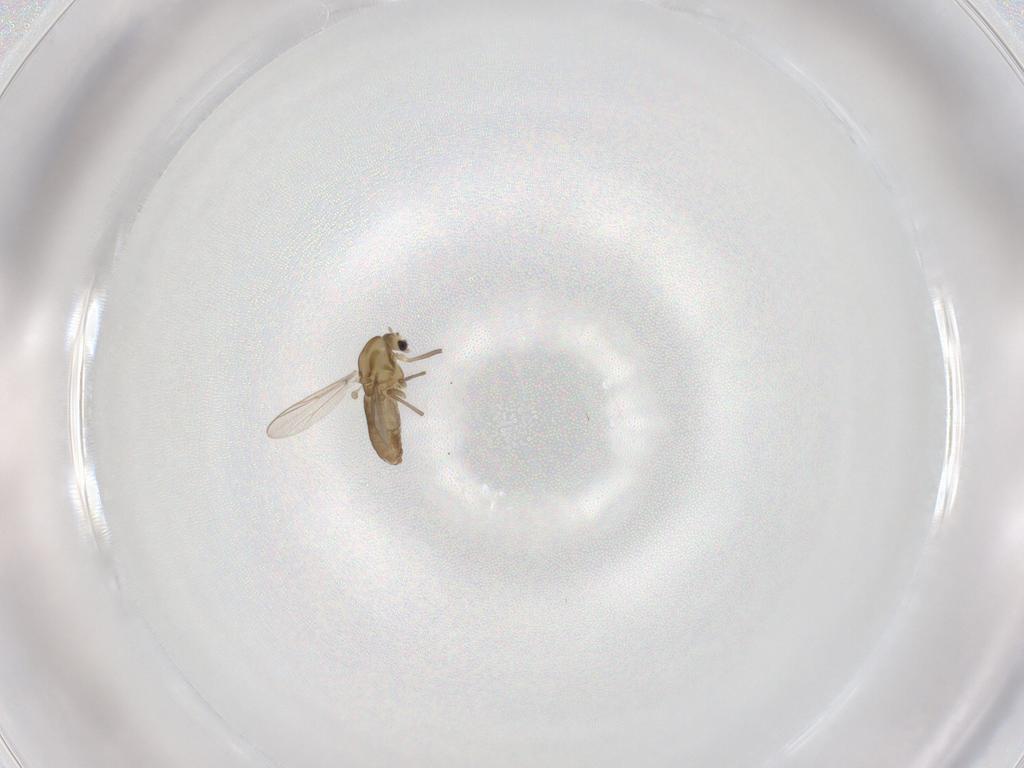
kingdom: Animalia
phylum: Arthropoda
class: Insecta
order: Diptera
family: Chironomidae
